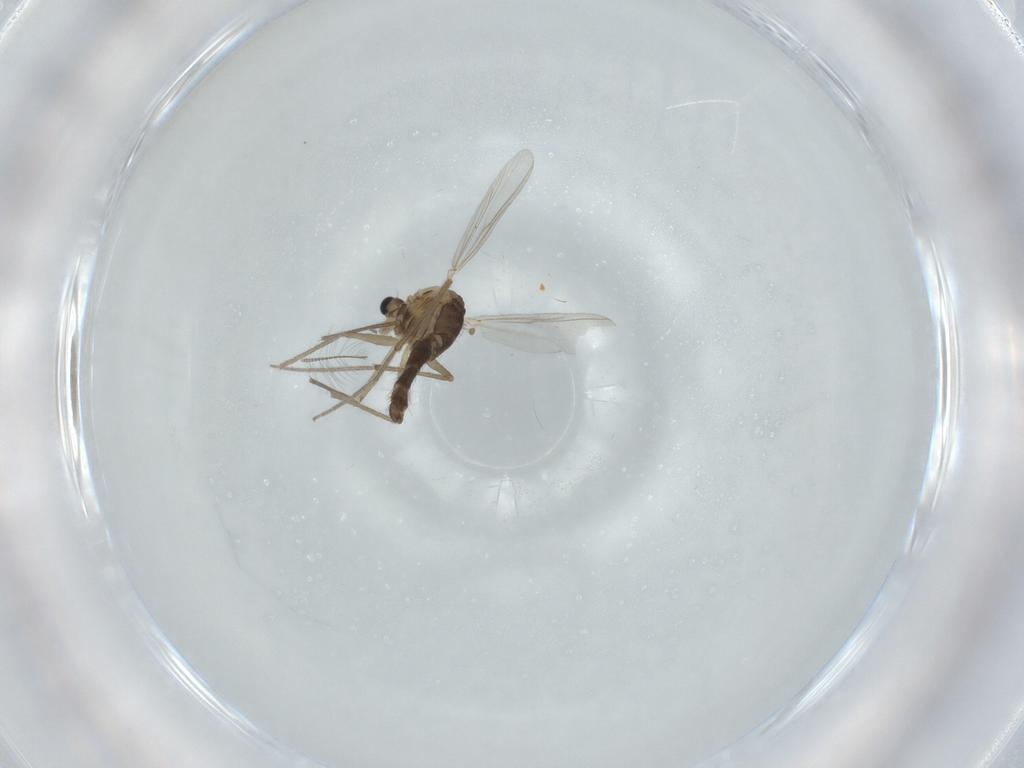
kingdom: Animalia
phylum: Arthropoda
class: Insecta
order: Diptera
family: Chironomidae
